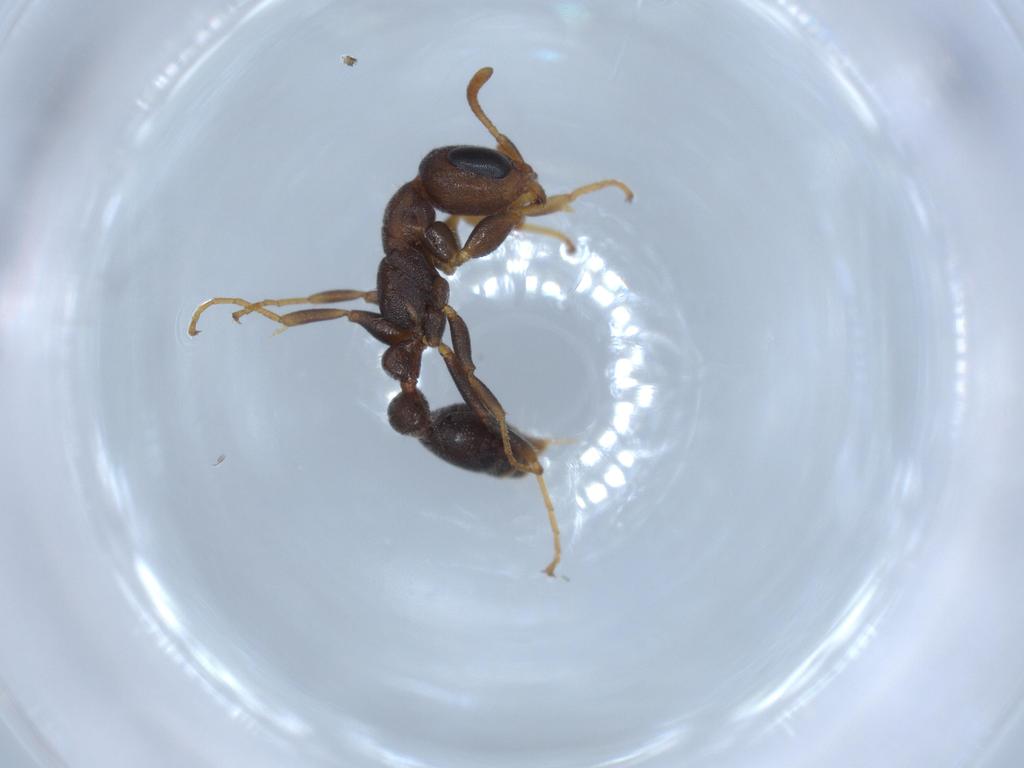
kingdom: Animalia
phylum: Arthropoda
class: Insecta
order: Hymenoptera
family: Formicidae
